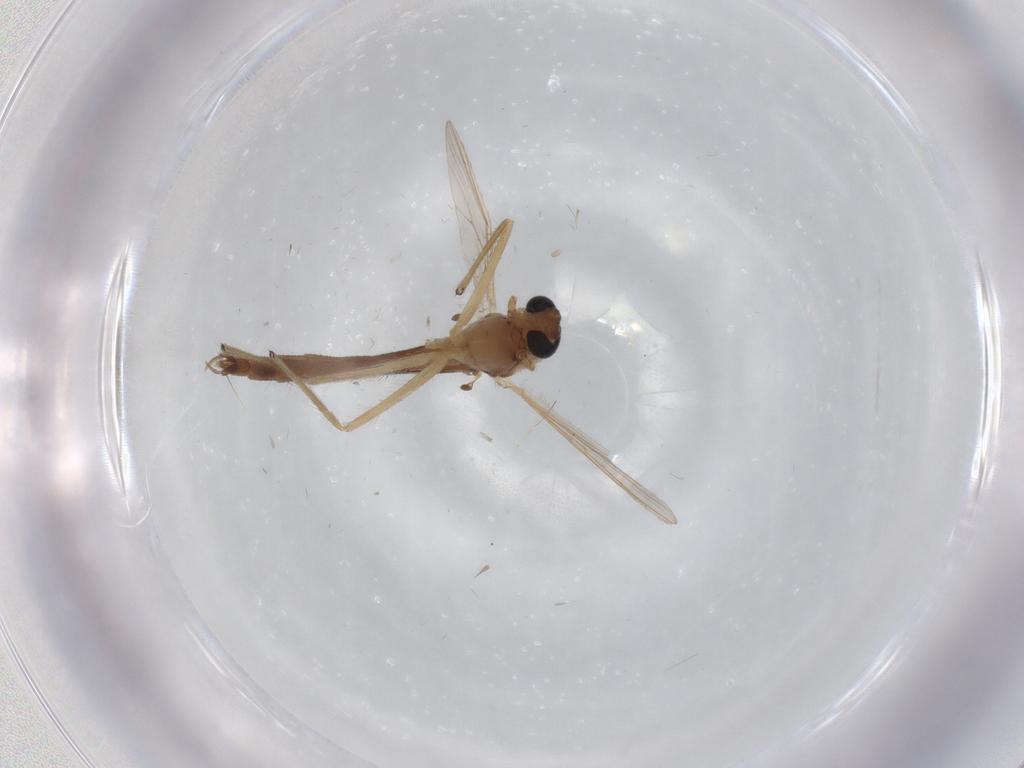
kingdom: Animalia
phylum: Arthropoda
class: Insecta
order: Diptera
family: Chironomidae
